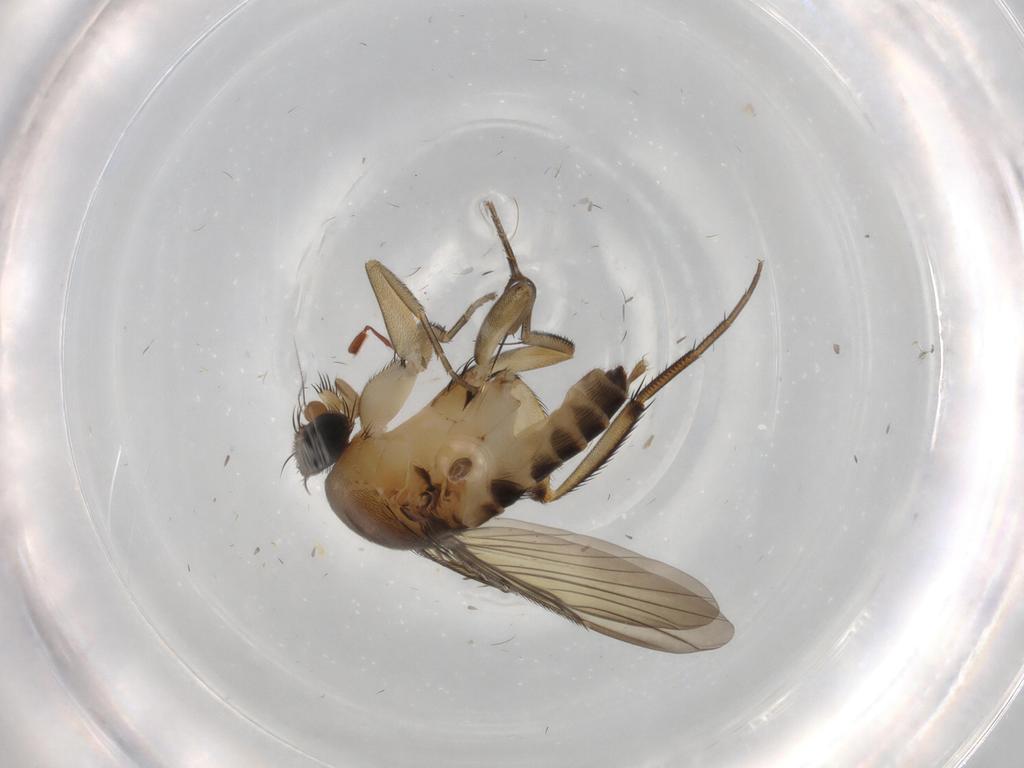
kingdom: Animalia
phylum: Arthropoda
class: Insecta
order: Diptera
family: Phoridae
